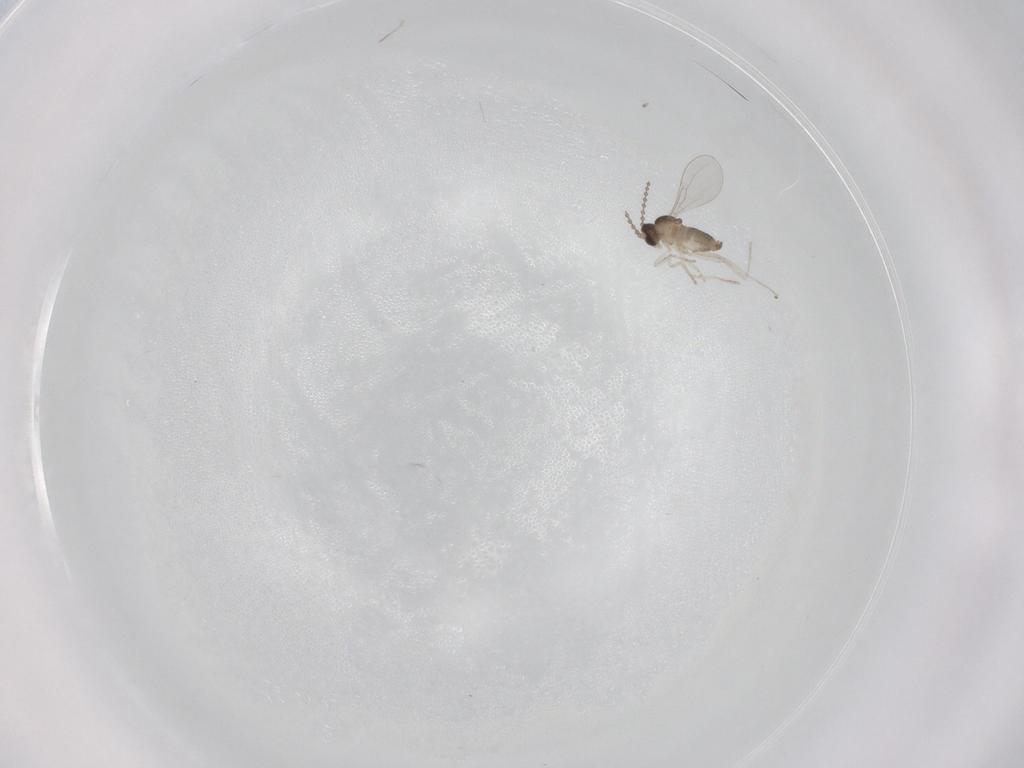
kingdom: Animalia
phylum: Arthropoda
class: Insecta
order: Diptera
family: Cecidomyiidae
